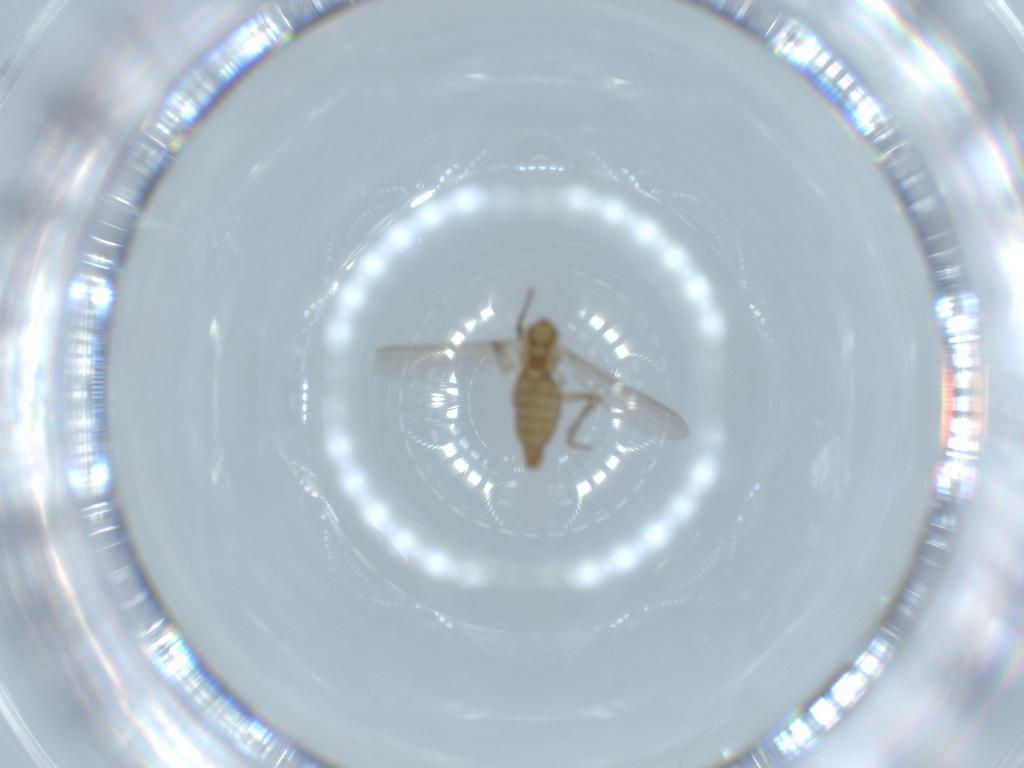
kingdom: Animalia
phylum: Arthropoda
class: Insecta
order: Diptera
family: Chironomidae
